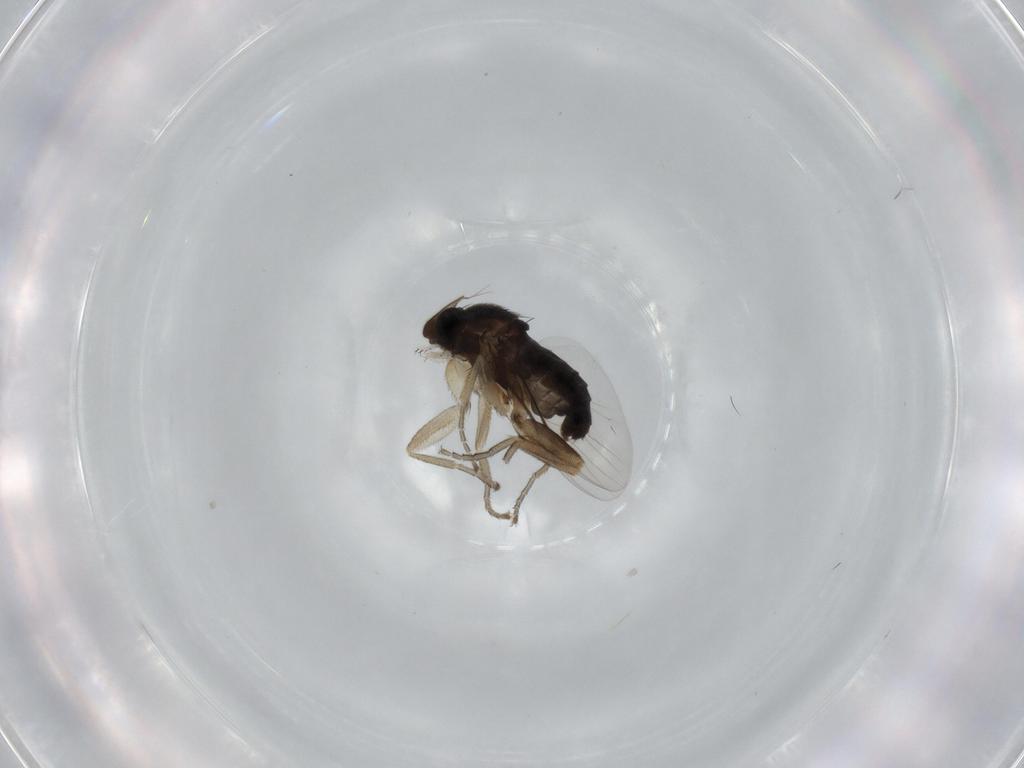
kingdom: Animalia
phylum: Arthropoda
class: Insecta
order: Diptera
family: Phoridae
